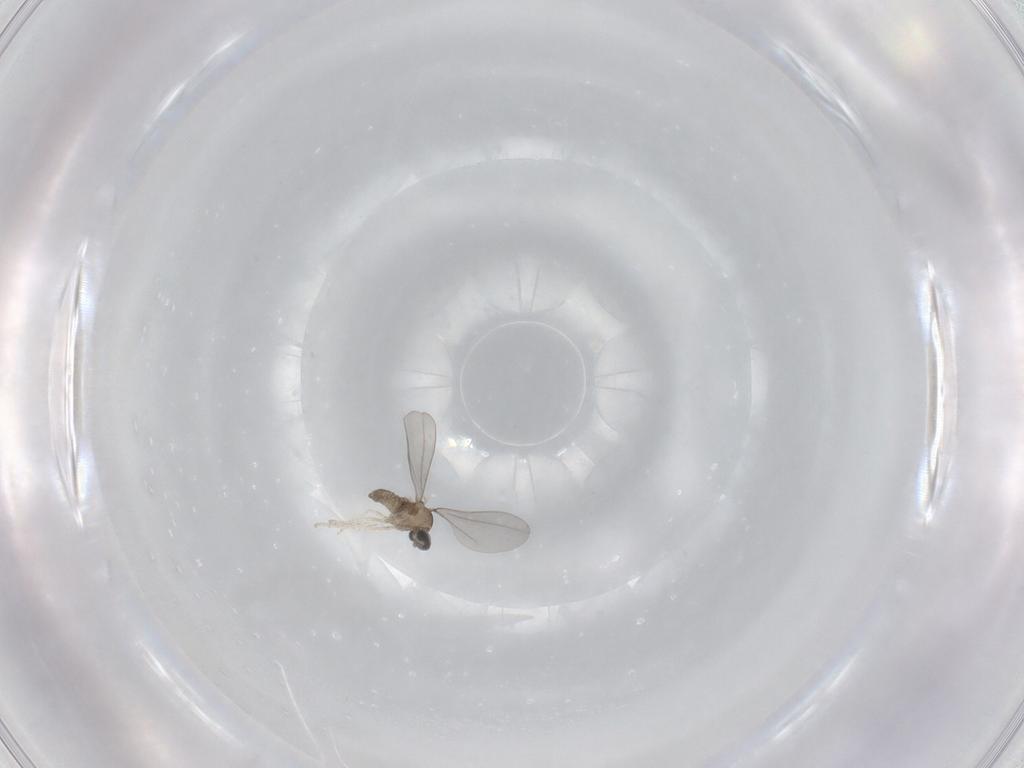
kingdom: Animalia
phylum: Arthropoda
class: Insecta
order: Diptera
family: Cecidomyiidae
